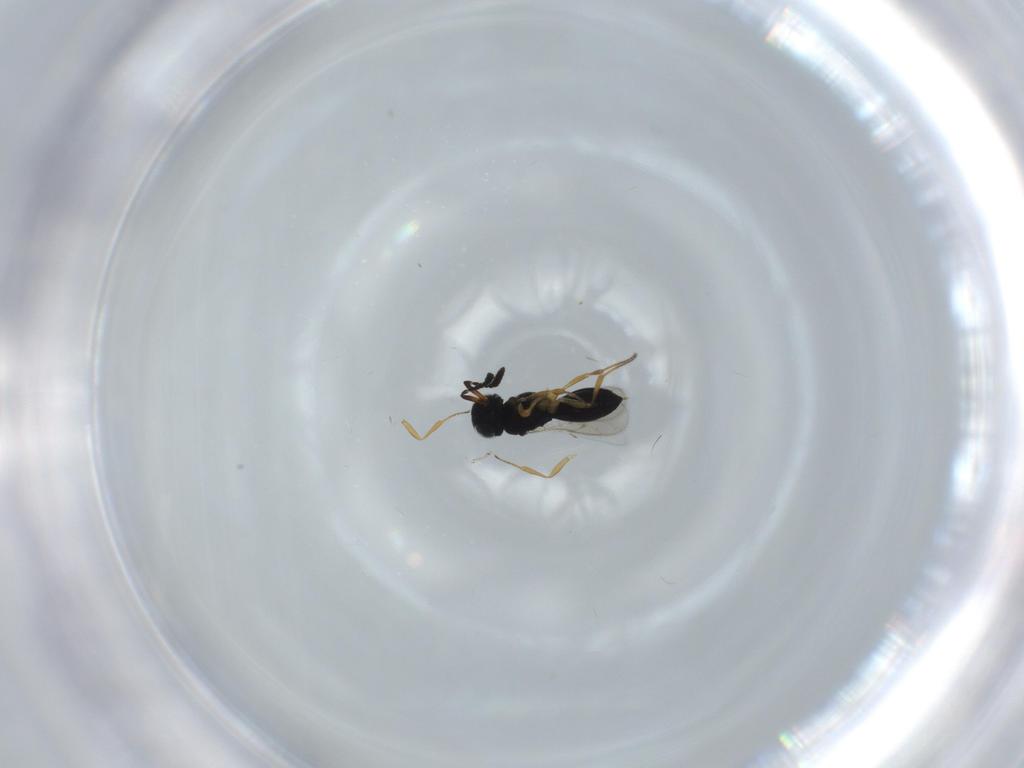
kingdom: Animalia
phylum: Arthropoda
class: Insecta
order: Hymenoptera
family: Scelionidae
